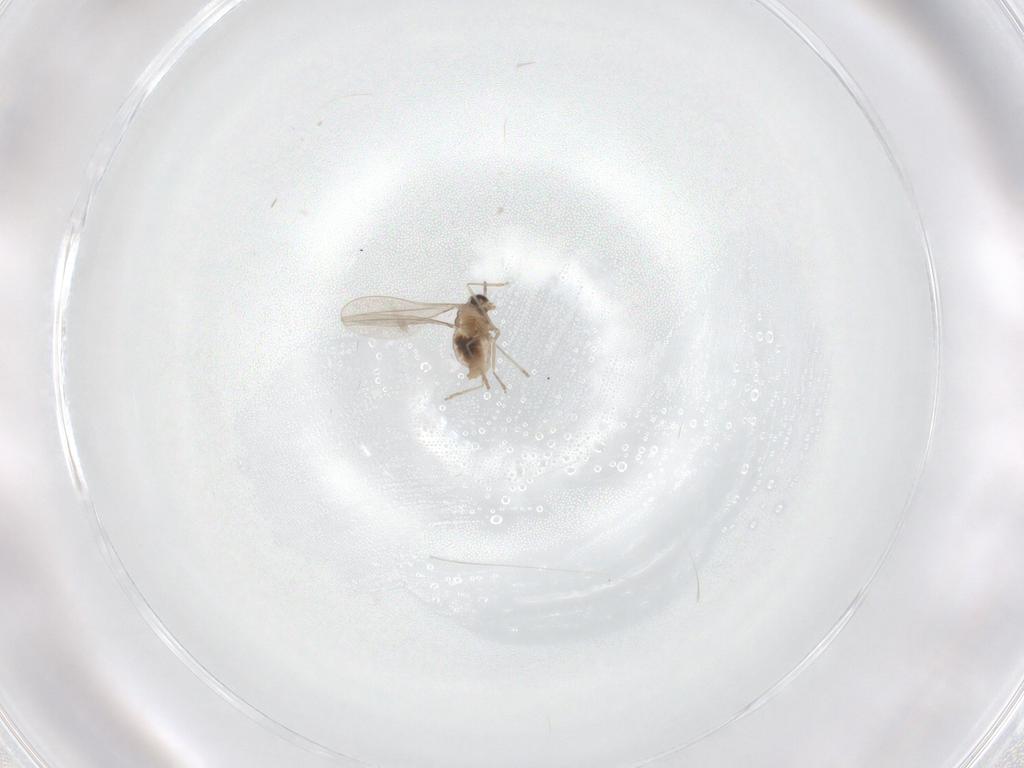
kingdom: Animalia
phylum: Arthropoda
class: Insecta
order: Diptera
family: Cecidomyiidae
